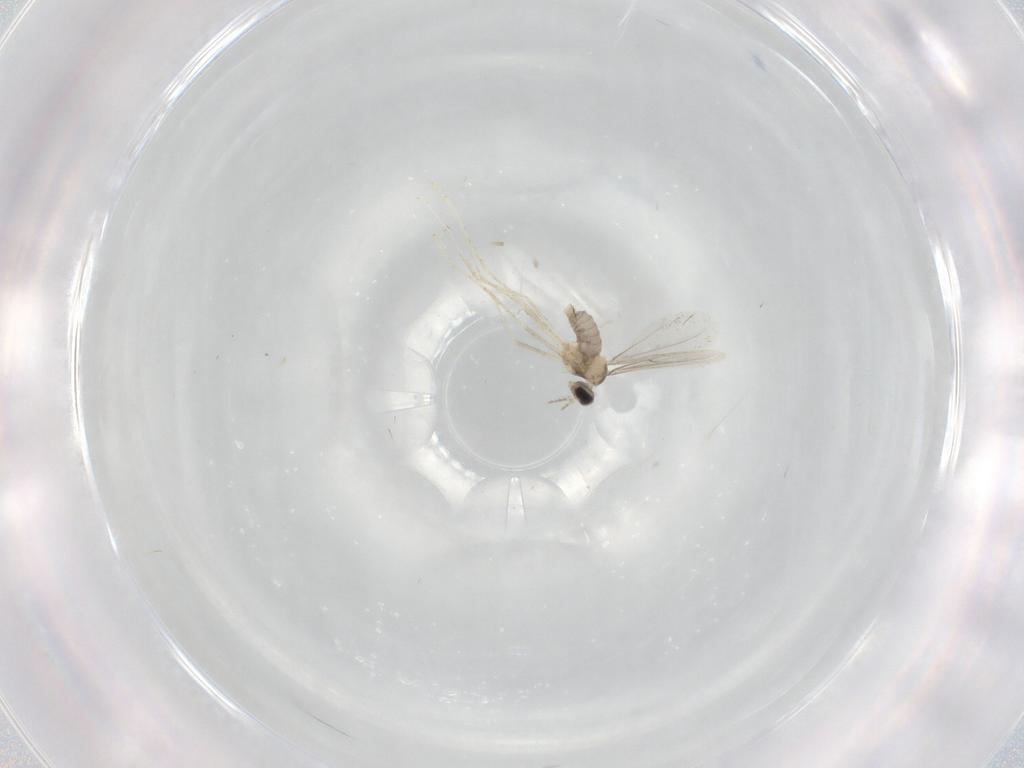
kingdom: Animalia
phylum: Arthropoda
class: Insecta
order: Diptera
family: Cecidomyiidae
